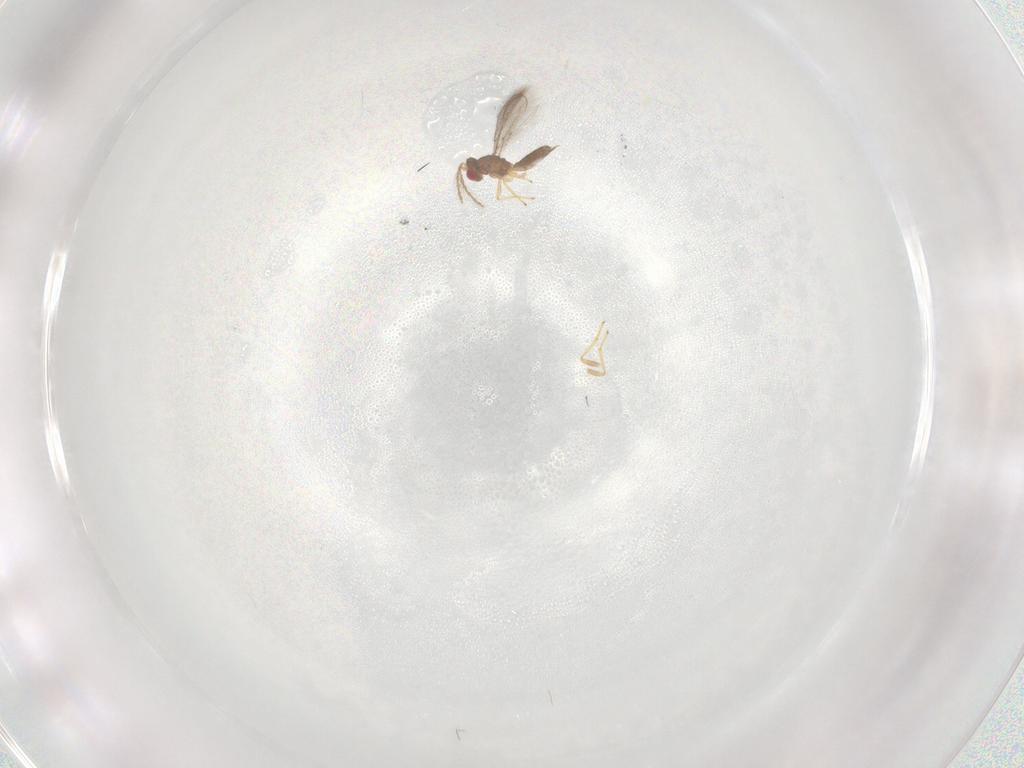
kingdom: Animalia
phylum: Arthropoda
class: Insecta
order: Hymenoptera
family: Eulophidae
